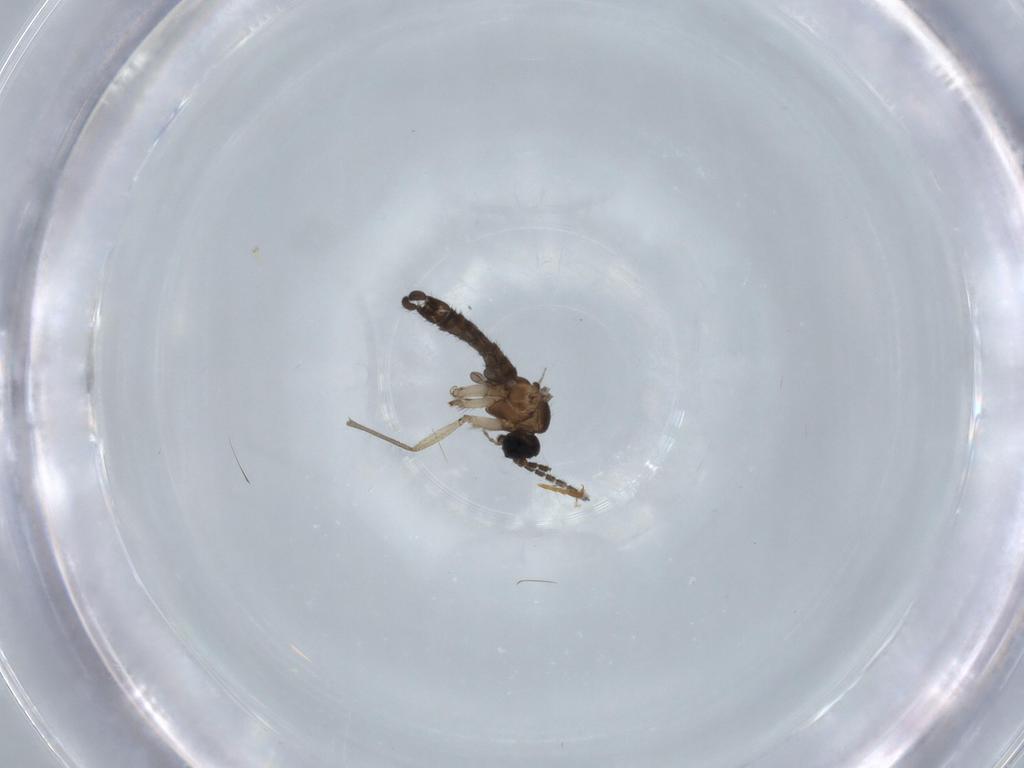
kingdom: Animalia
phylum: Arthropoda
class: Insecta
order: Diptera
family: Sciaridae
